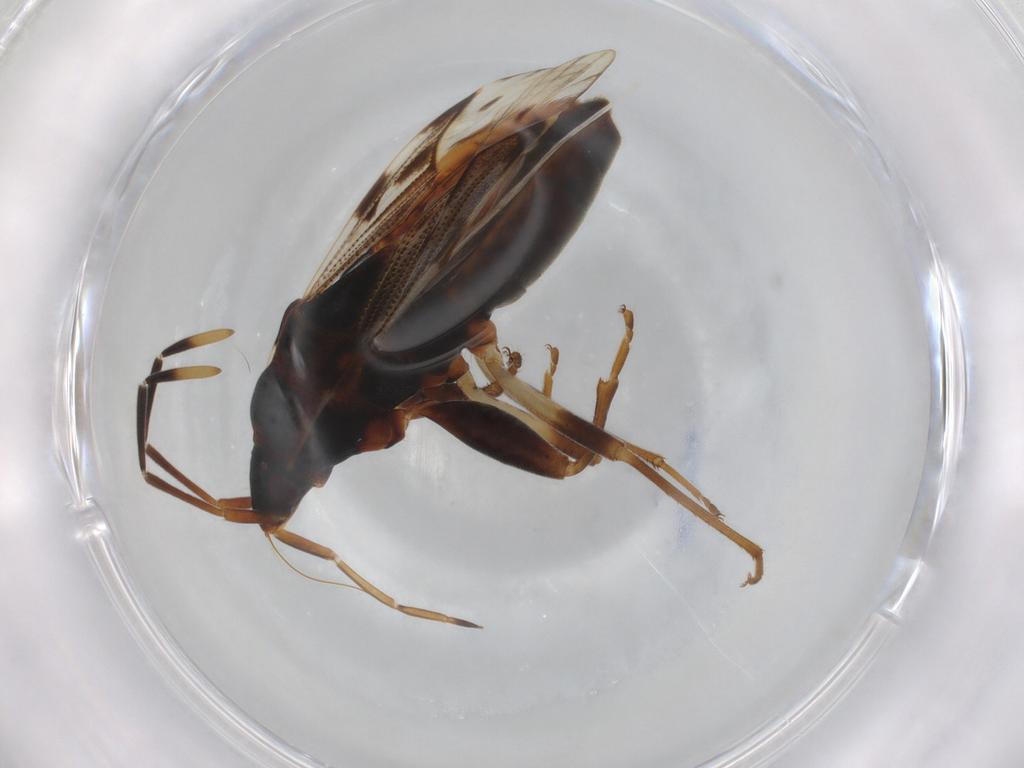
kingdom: Animalia
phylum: Arthropoda
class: Insecta
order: Hemiptera
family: Rhyparochromidae
